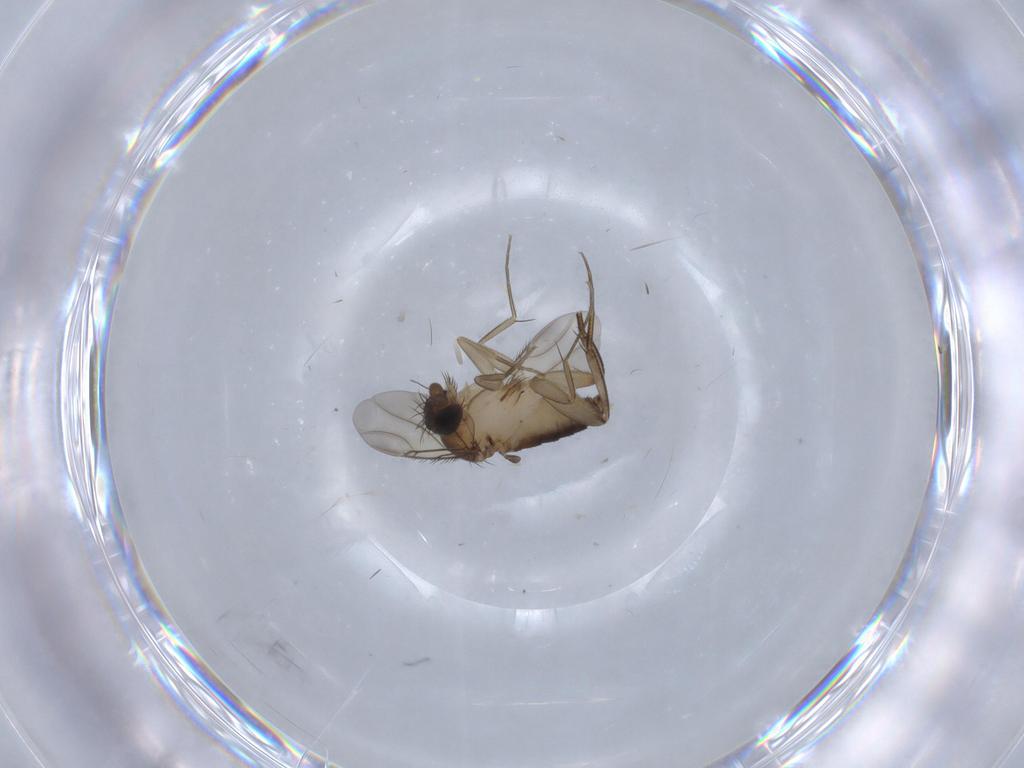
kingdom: Animalia
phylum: Arthropoda
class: Insecta
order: Diptera
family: Phoridae
